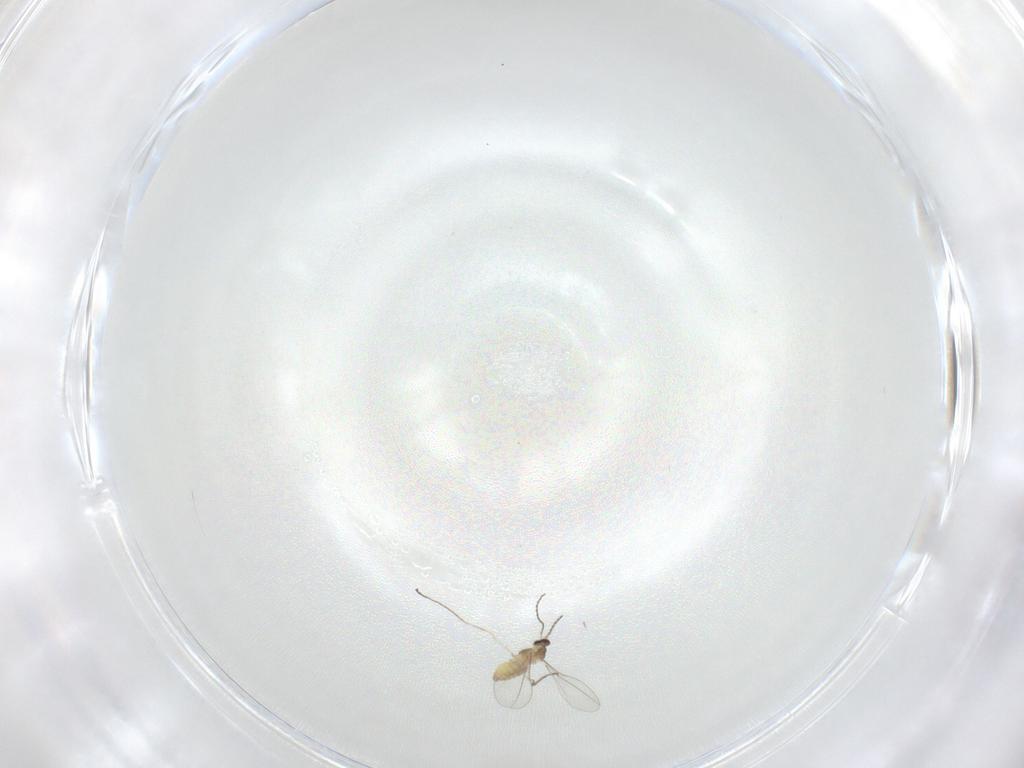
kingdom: Animalia
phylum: Arthropoda
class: Insecta
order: Diptera
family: Cecidomyiidae
